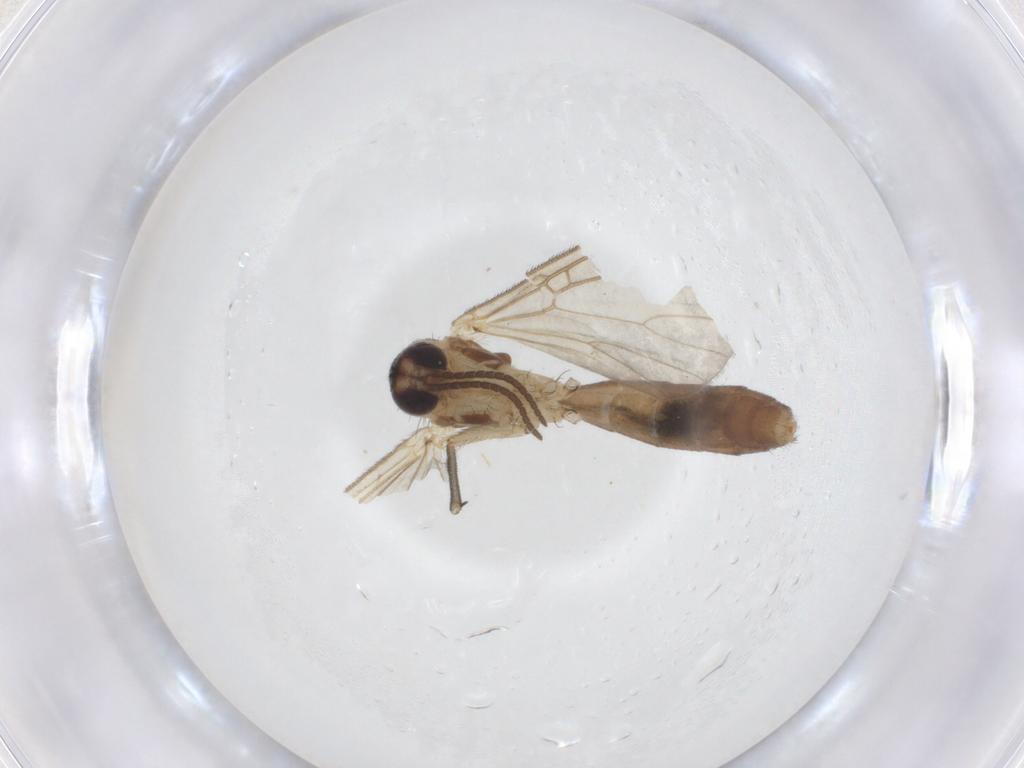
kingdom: Animalia
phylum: Arthropoda
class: Insecta
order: Diptera
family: Mycetophilidae
